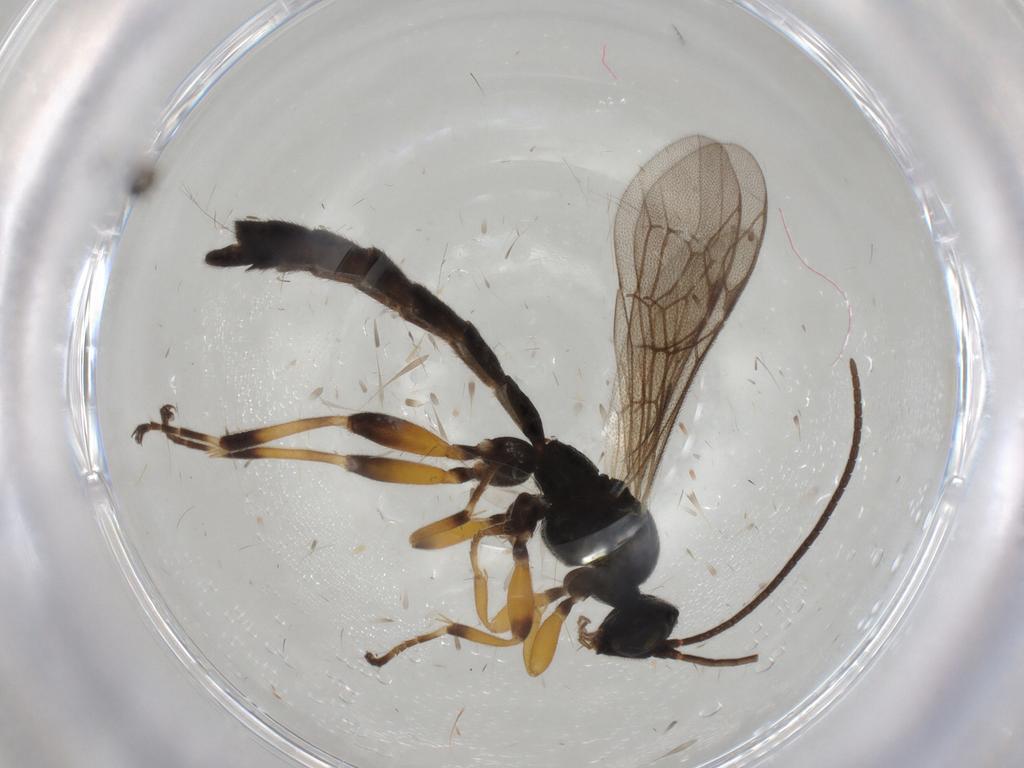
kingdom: Animalia
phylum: Arthropoda
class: Insecta
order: Hymenoptera
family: Ichneumonidae
